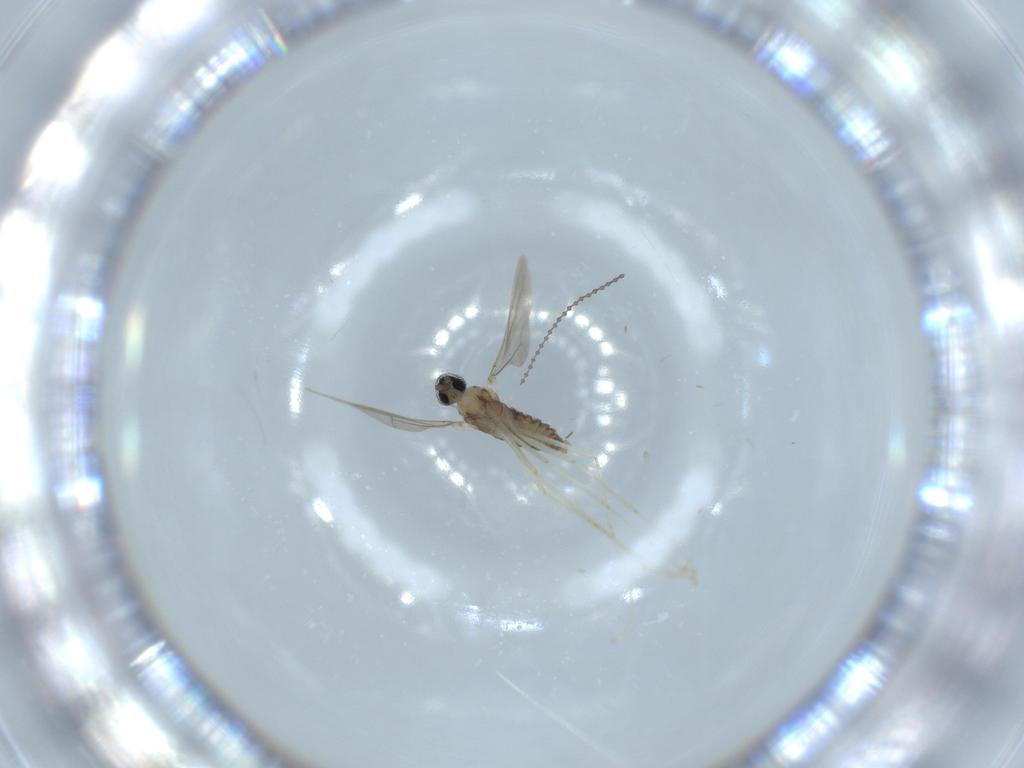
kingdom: Animalia
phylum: Arthropoda
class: Insecta
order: Diptera
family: Cecidomyiidae
